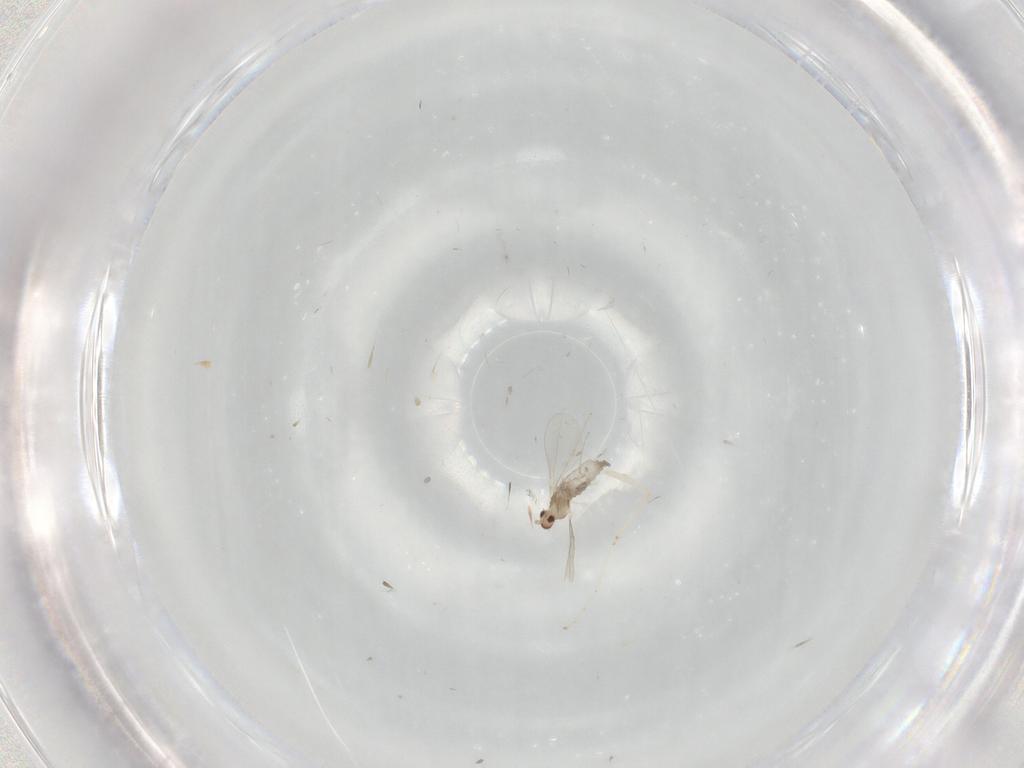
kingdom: Animalia
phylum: Arthropoda
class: Insecta
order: Diptera
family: Cecidomyiidae
